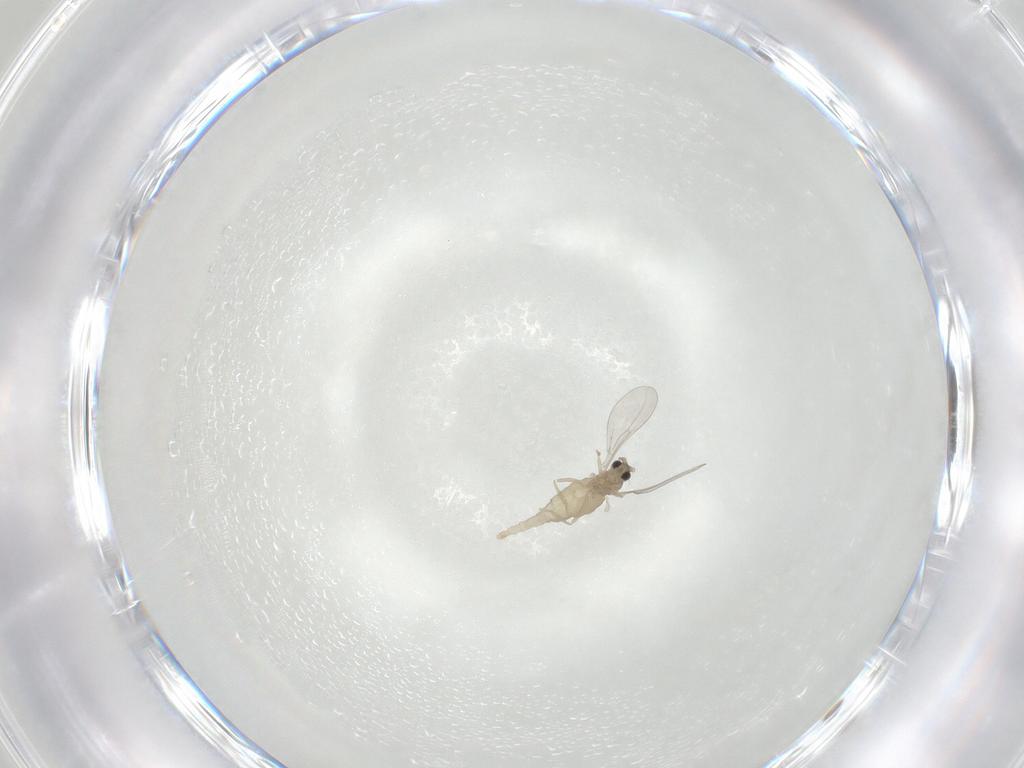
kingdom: Animalia
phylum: Arthropoda
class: Insecta
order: Diptera
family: Cecidomyiidae
